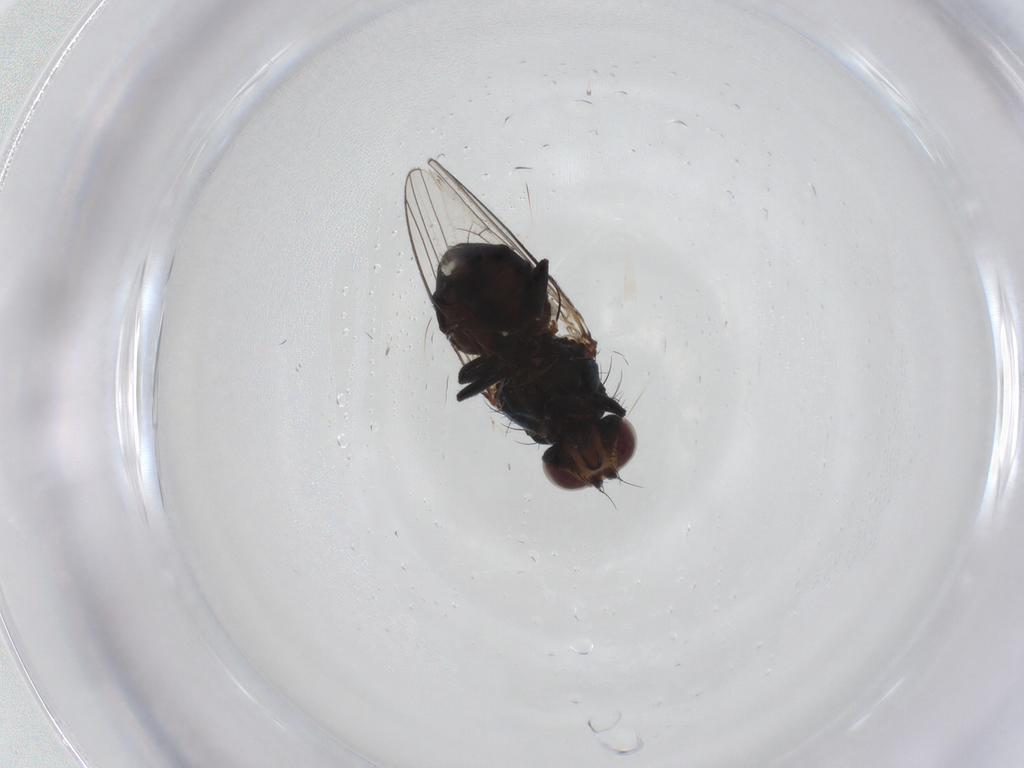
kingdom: Animalia
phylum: Arthropoda
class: Insecta
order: Diptera
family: Carnidae
